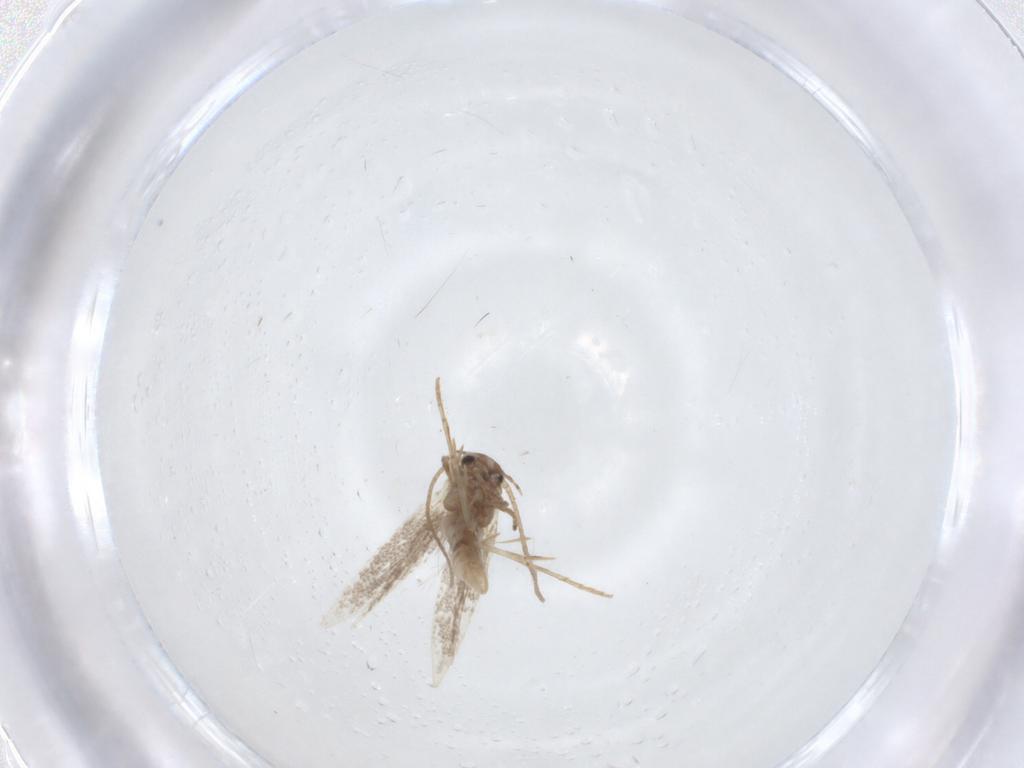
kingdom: Animalia
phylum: Arthropoda
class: Insecta
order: Lepidoptera
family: Gelechiidae
